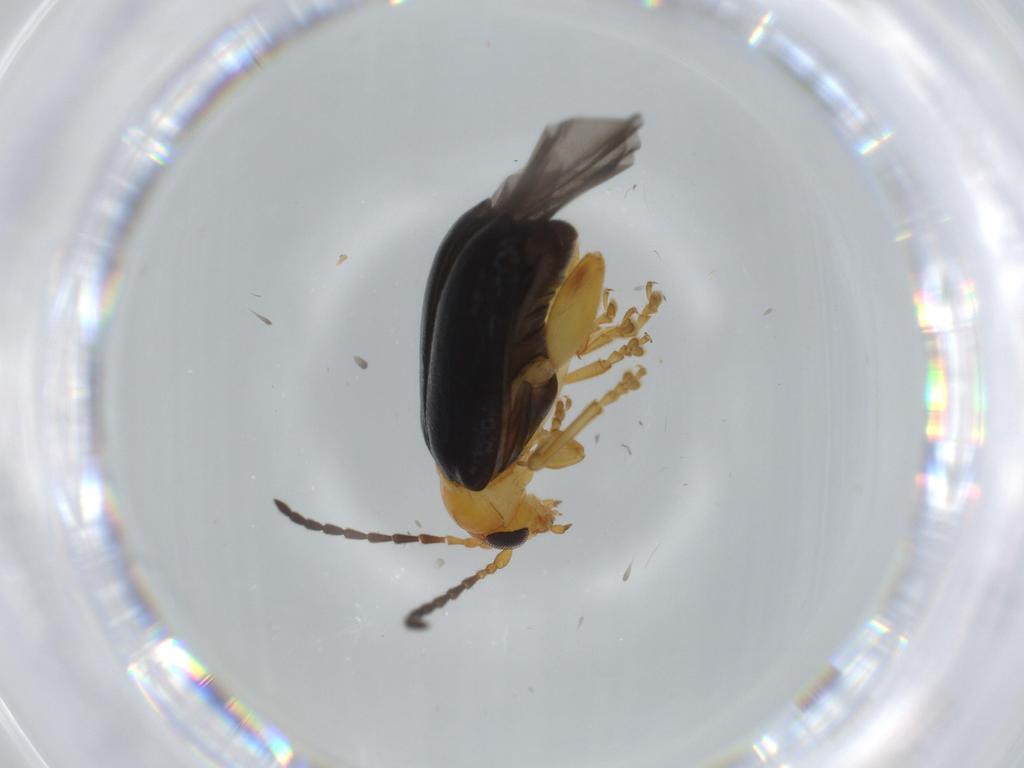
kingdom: Animalia
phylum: Arthropoda
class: Insecta
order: Coleoptera
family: Chrysomelidae
